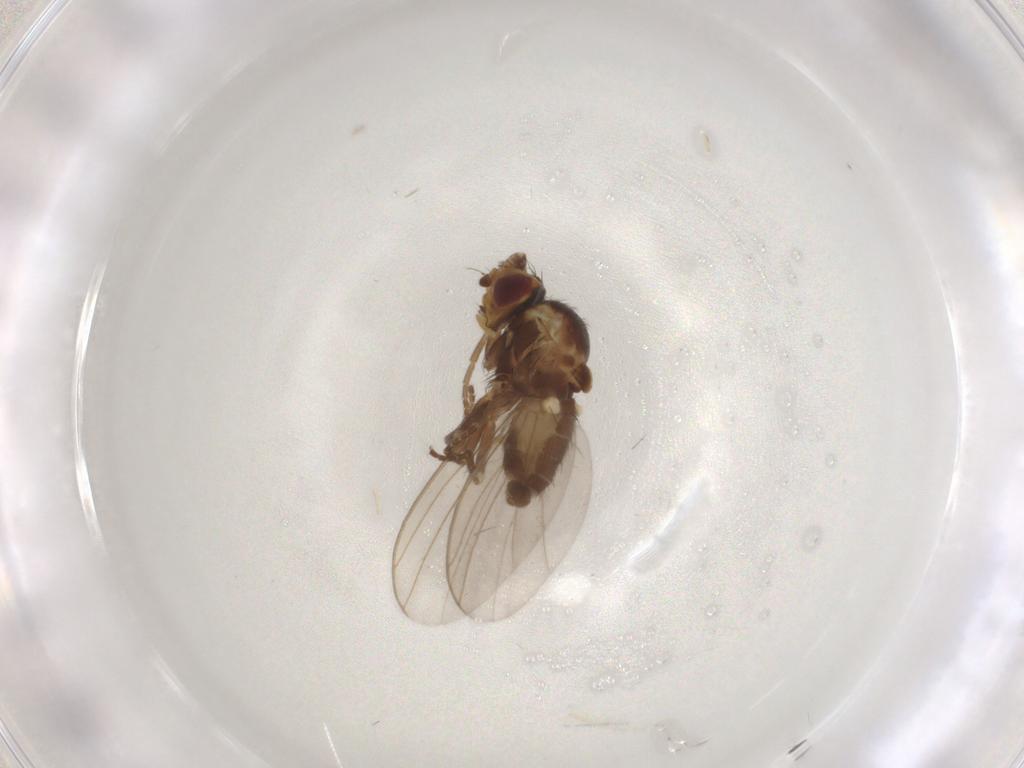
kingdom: Animalia
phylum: Arthropoda
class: Insecta
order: Diptera
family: Agromyzidae
